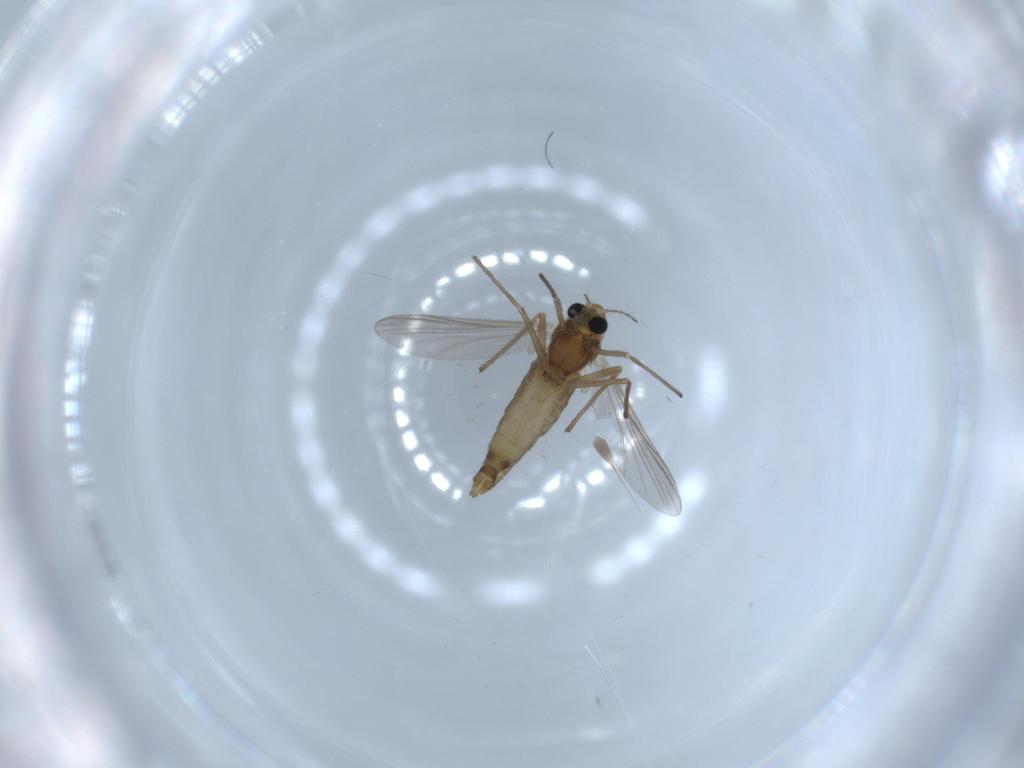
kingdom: Animalia
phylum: Arthropoda
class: Insecta
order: Diptera
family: Chironomidae
